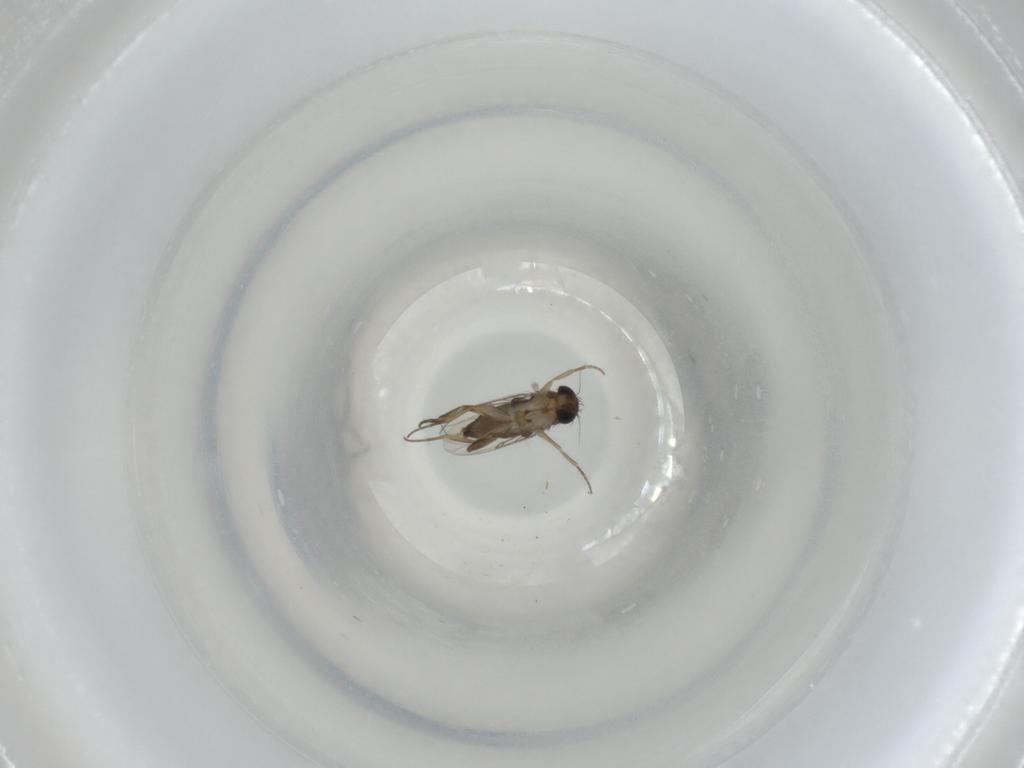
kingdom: Animalia
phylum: Arthropoda
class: Insecta
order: Diptera
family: Phoridae
